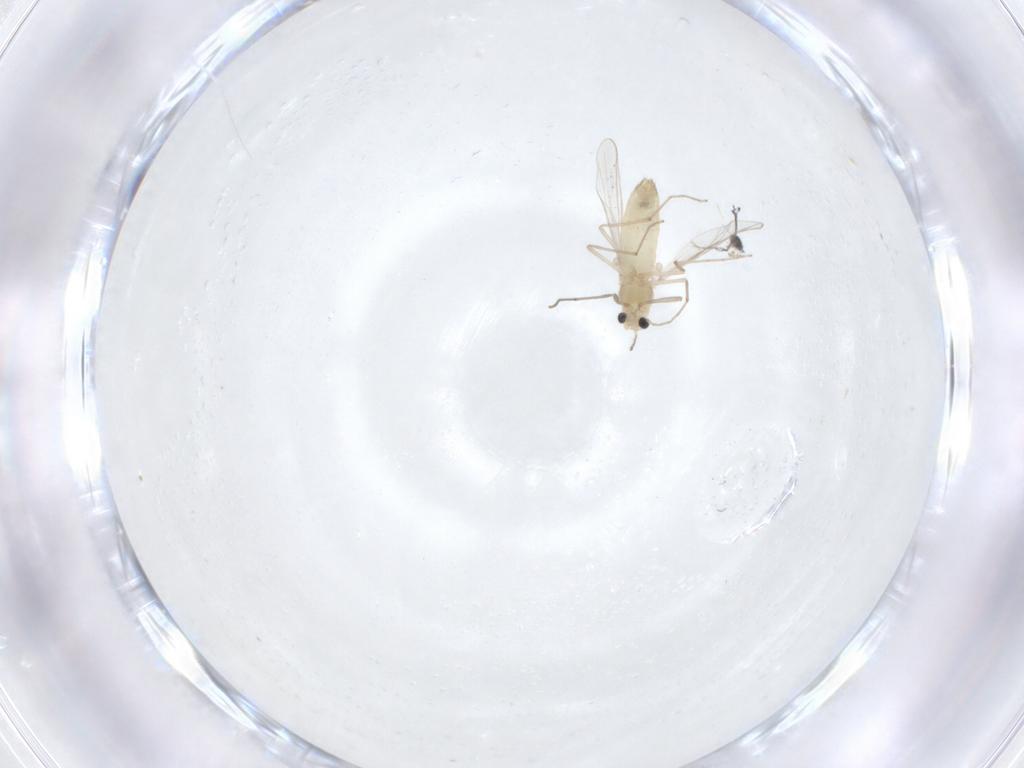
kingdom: Animalia
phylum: Arthropoda
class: Insecta
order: Diptera
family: Brachystomatidae
